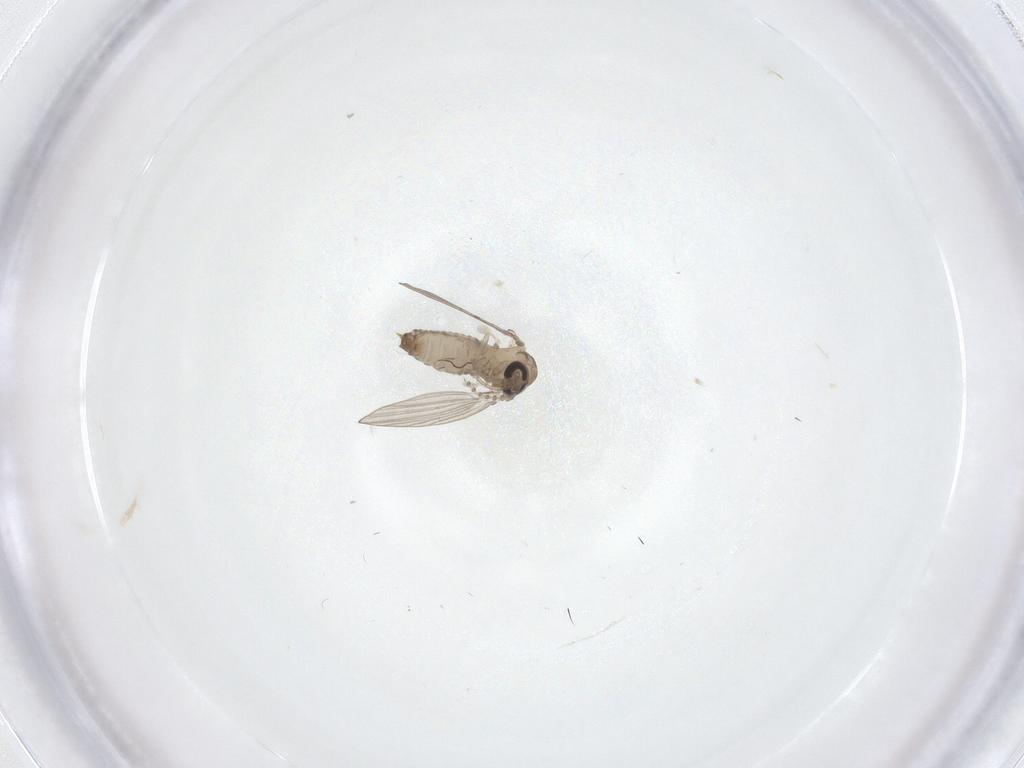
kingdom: Animalia
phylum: Arthropoda
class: Insecta
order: Diptera
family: Psychodidae
